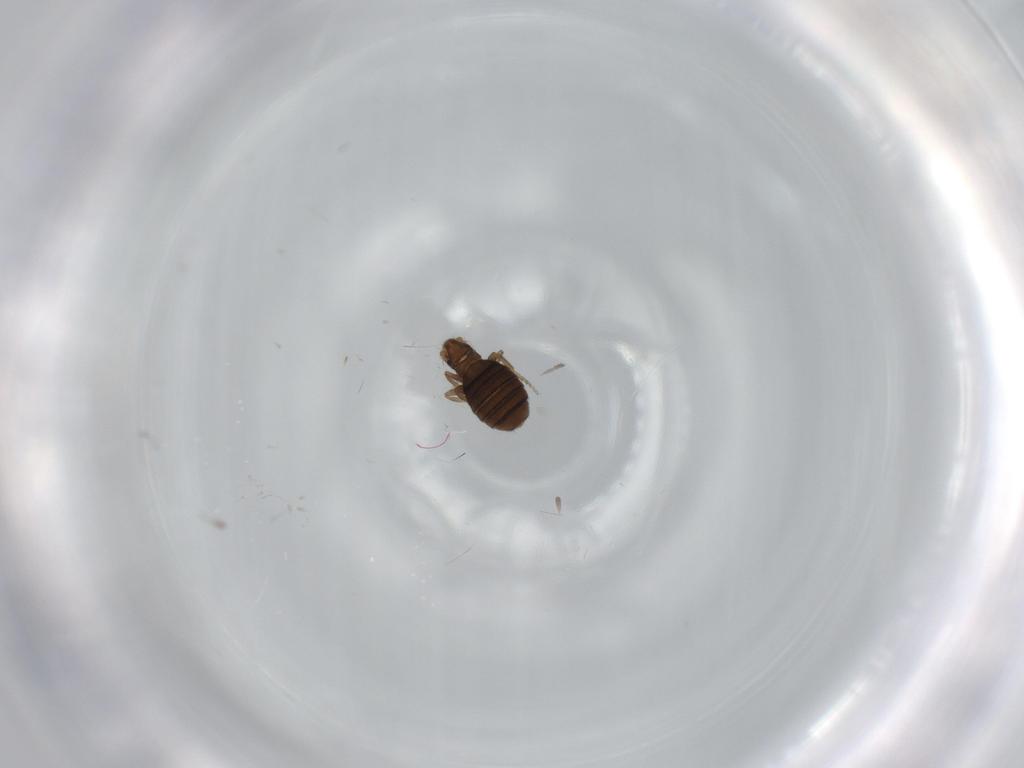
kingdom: Animalia
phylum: Arthropoda
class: Insecta
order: Diptera
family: Phoridae
